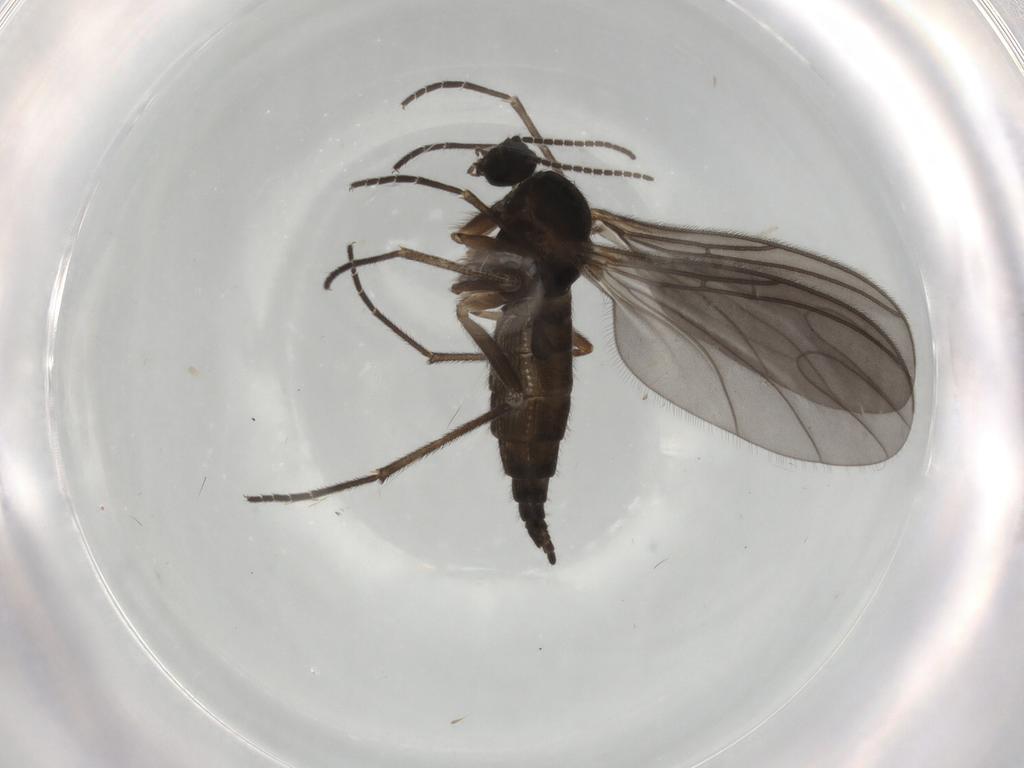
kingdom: Animalia
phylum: Arthropoda
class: Insecta
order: Diptera
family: Sciaridae
